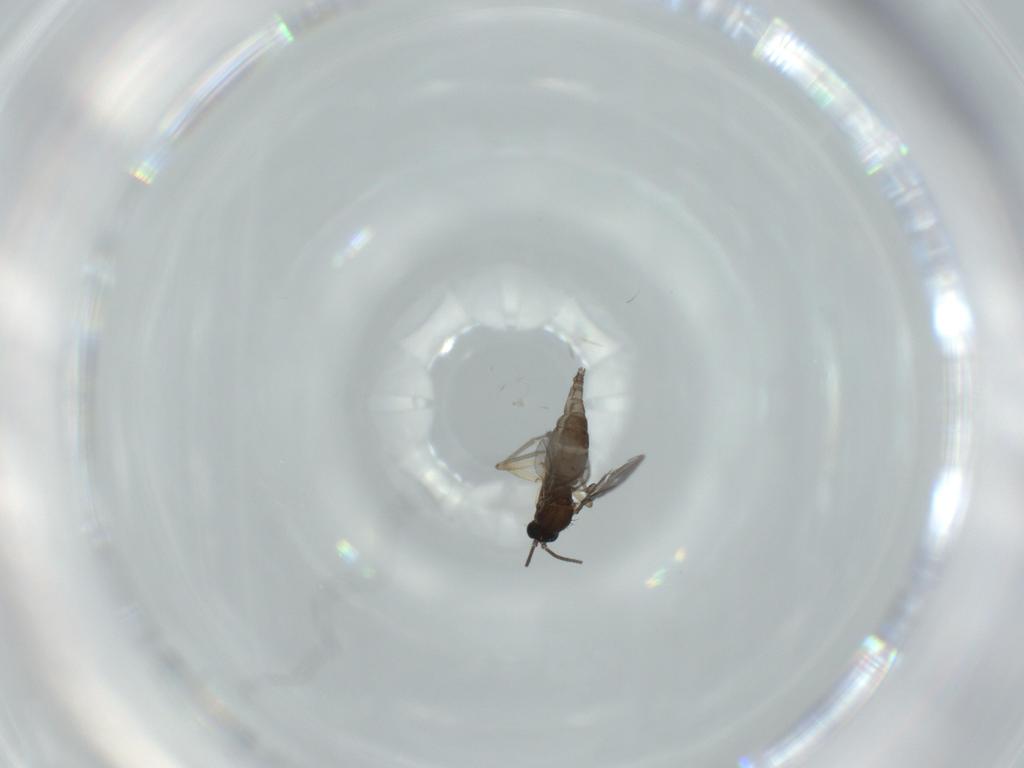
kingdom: Animalia
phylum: Arthropoda
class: Insecta
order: Diptera
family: Sciaridae
